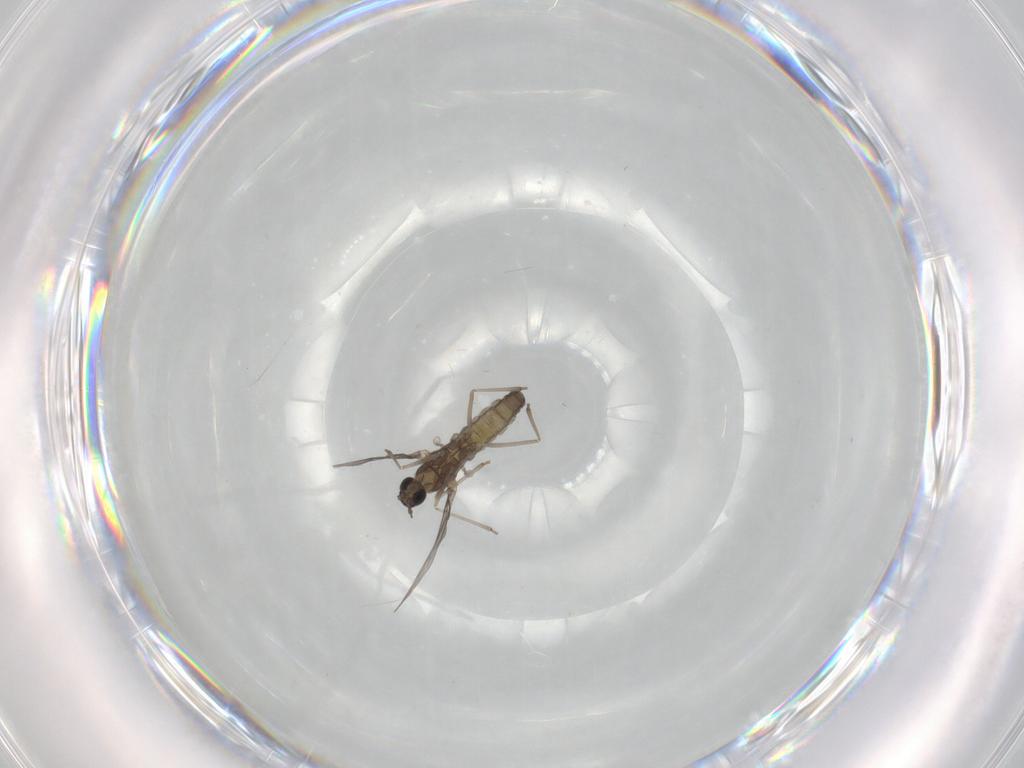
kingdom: Animalia
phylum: Arthropoda
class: Insecta
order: Diptera
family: Cecidomyiidae
